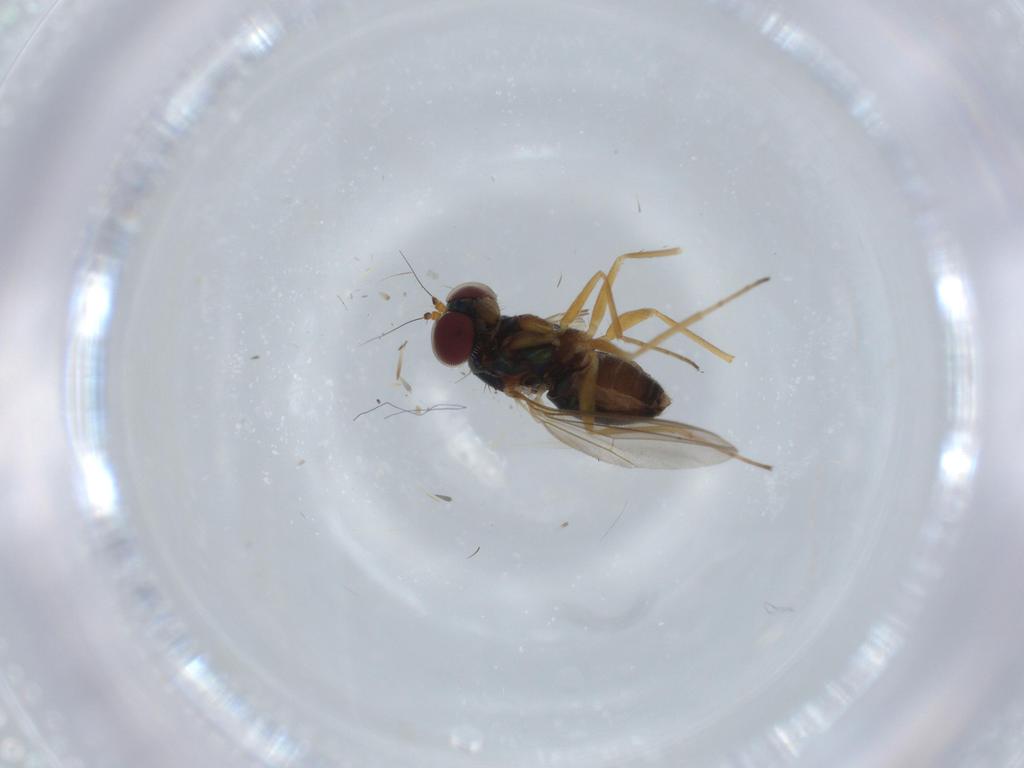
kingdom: Animalia
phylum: Arthropoda
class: Insecta
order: Diptera
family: Dolichopodidae
